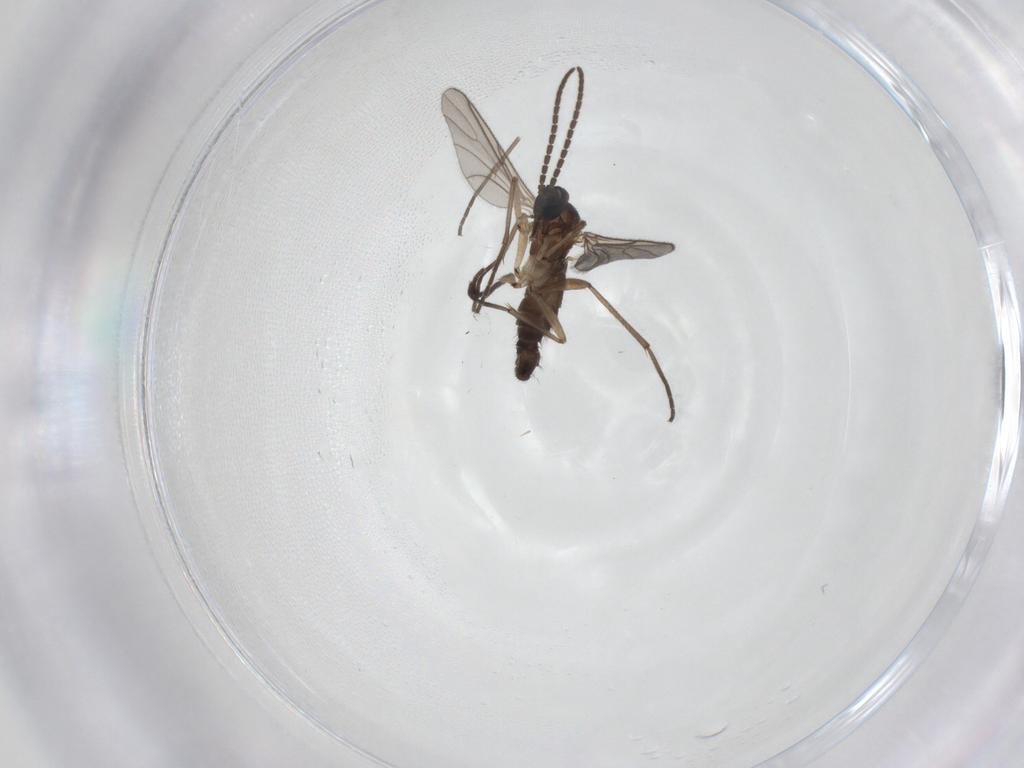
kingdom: Animalia
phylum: Arthropoda
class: Insecta
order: Diptera
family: Sciaridae
